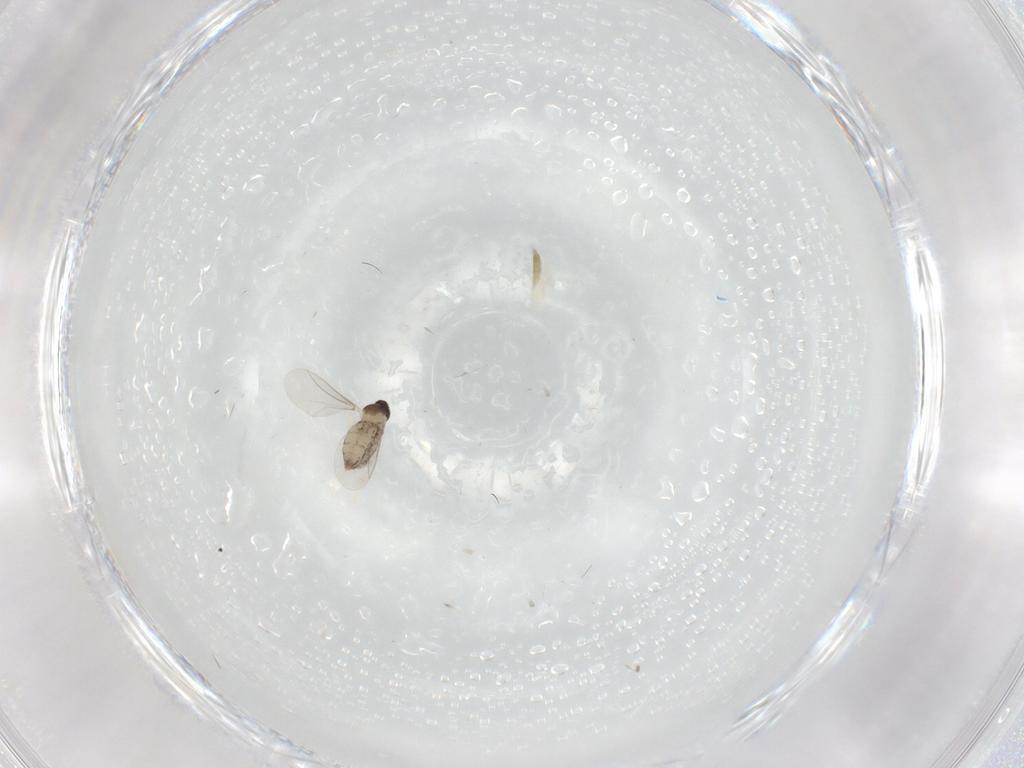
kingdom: Animalia
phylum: Arthropoda
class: Insecta
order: Diptera
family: Cecidomyiidae
